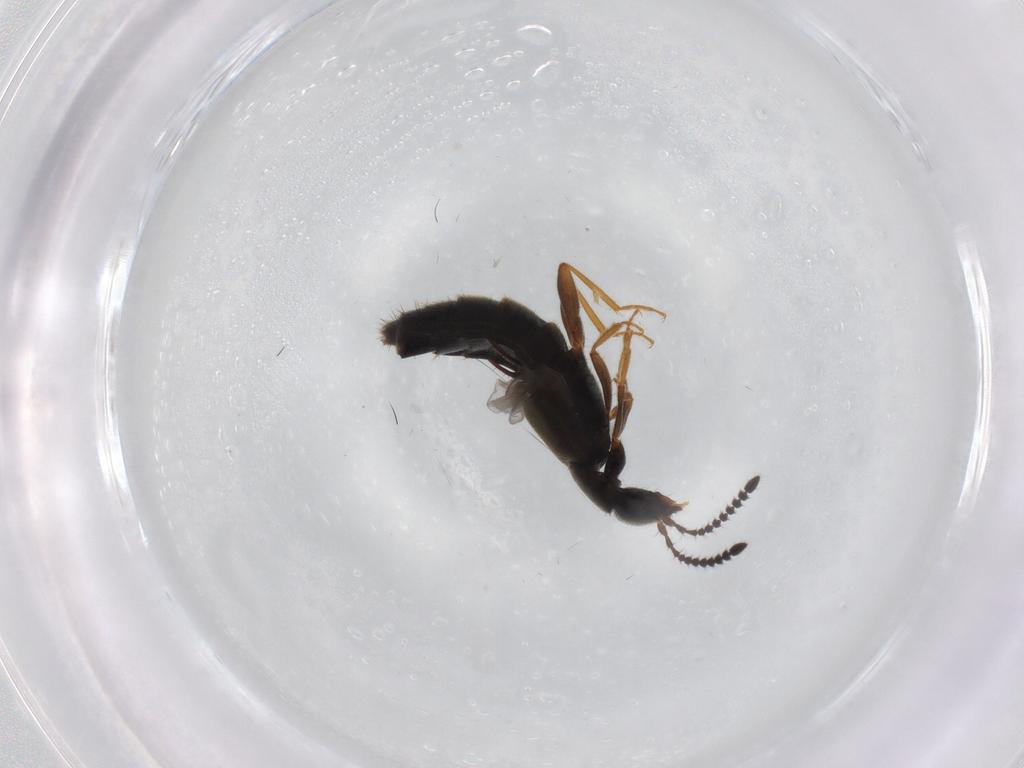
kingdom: Animalia
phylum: Arthropoda
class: Insecta
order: Coleoptera
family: Staphylinidae
